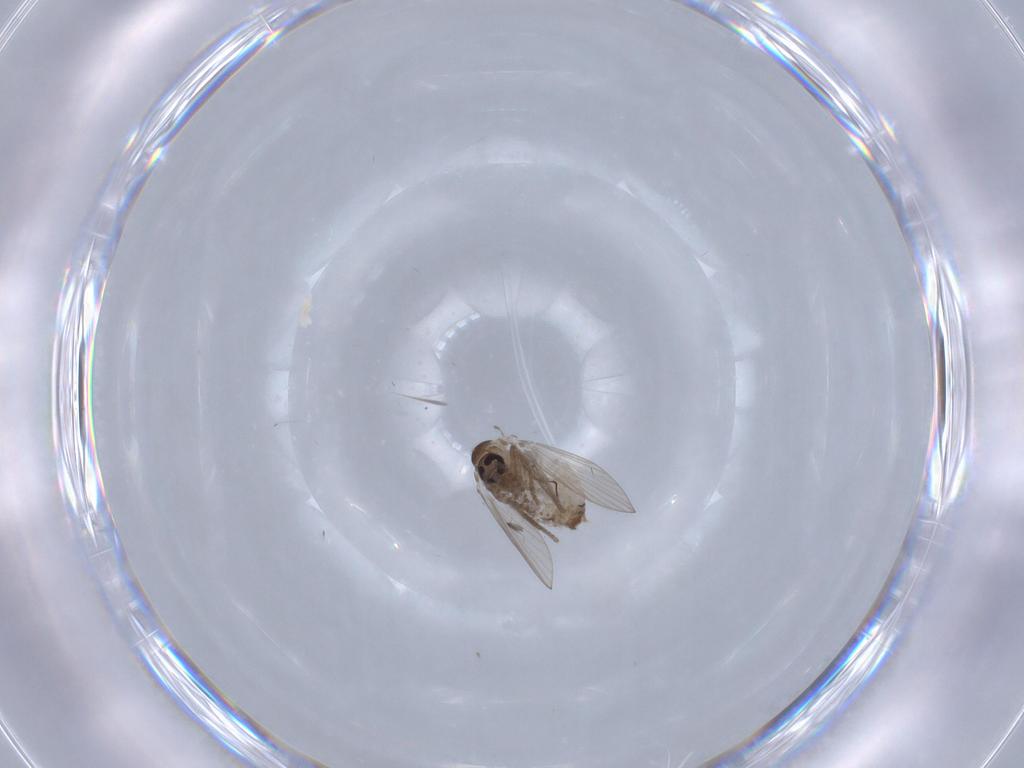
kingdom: Animalia
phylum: Arthropoda
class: Insecta
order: Diptera
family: Psychodidae
